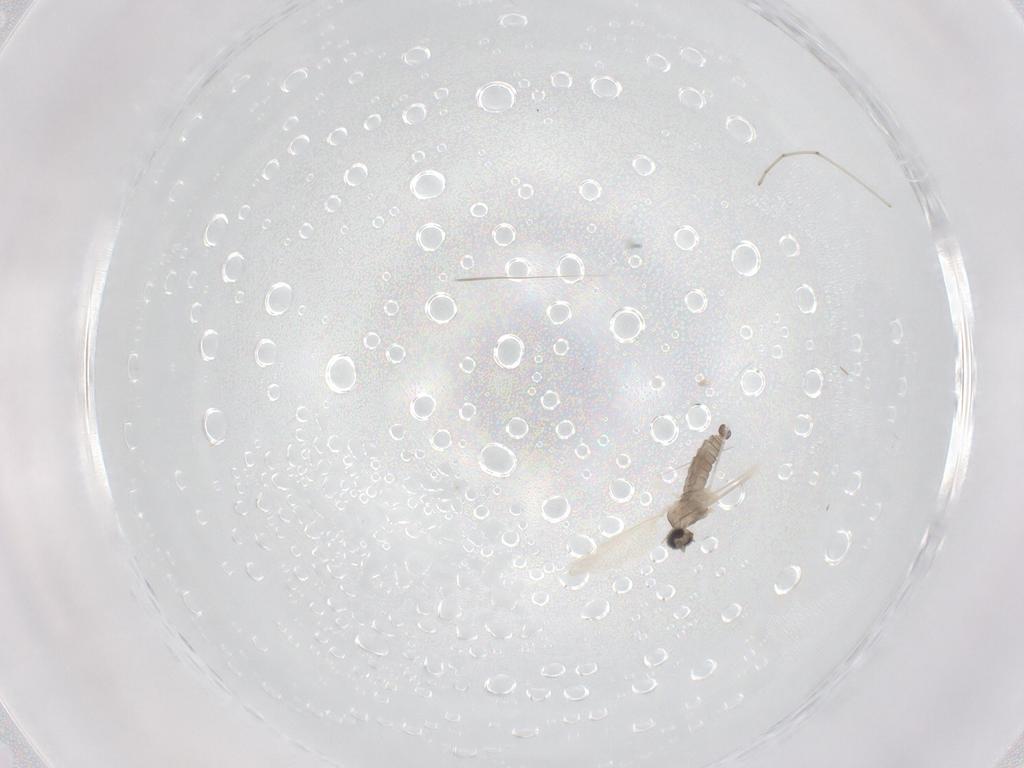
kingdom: Animalia
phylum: Arthropoda
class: Insecta
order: Diptera
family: Cecidomyiidae
